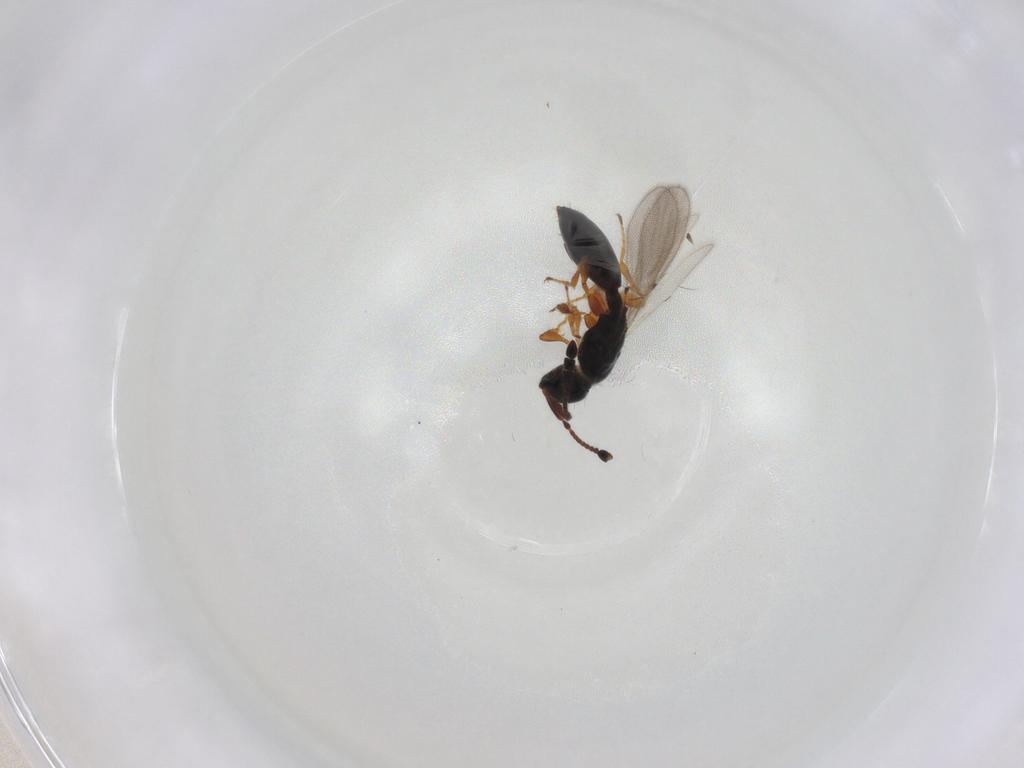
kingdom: Animalia
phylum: Arthropoda
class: Insecta
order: Hymenoptera
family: Diapriidae
